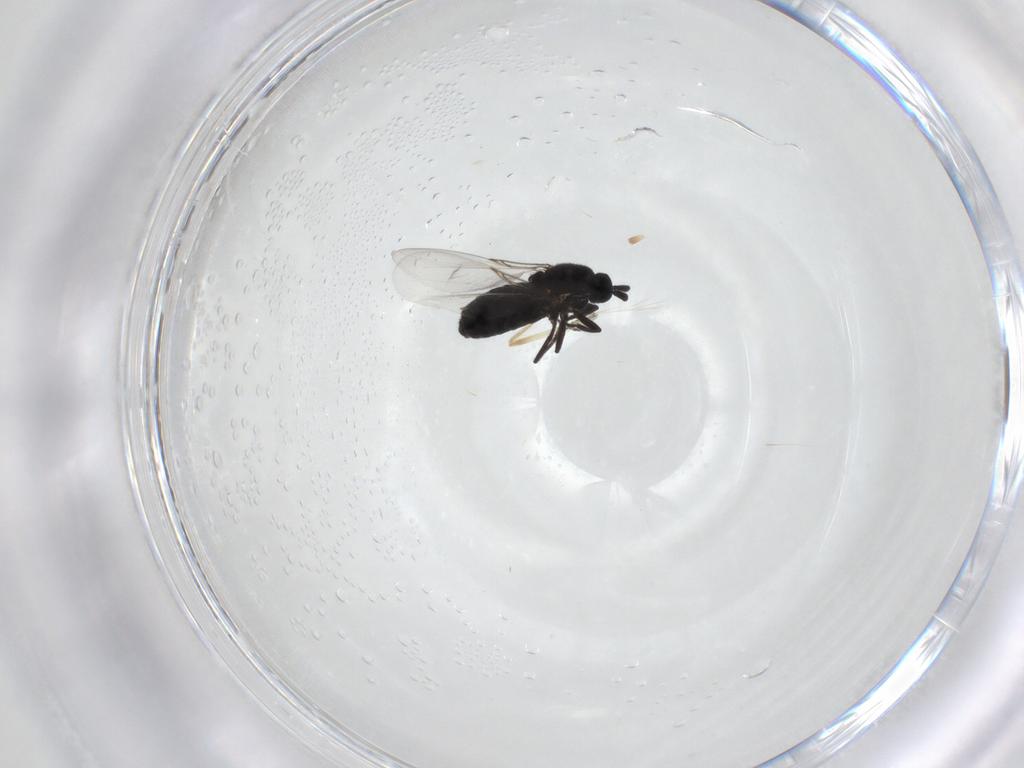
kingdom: Animalia
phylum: Arthropoda
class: Insecta
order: Diptera
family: Scatopsidae
